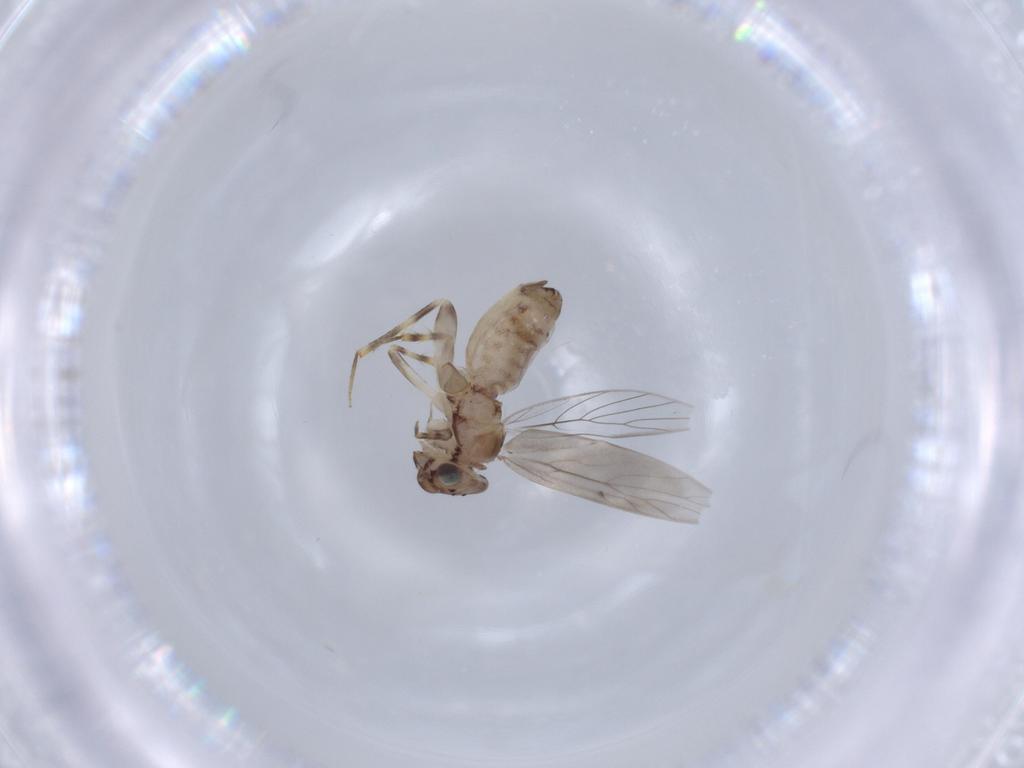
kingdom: Animalia
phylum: Arthropoda
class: Insecta
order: Psocodea
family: Lepidopsocidae
